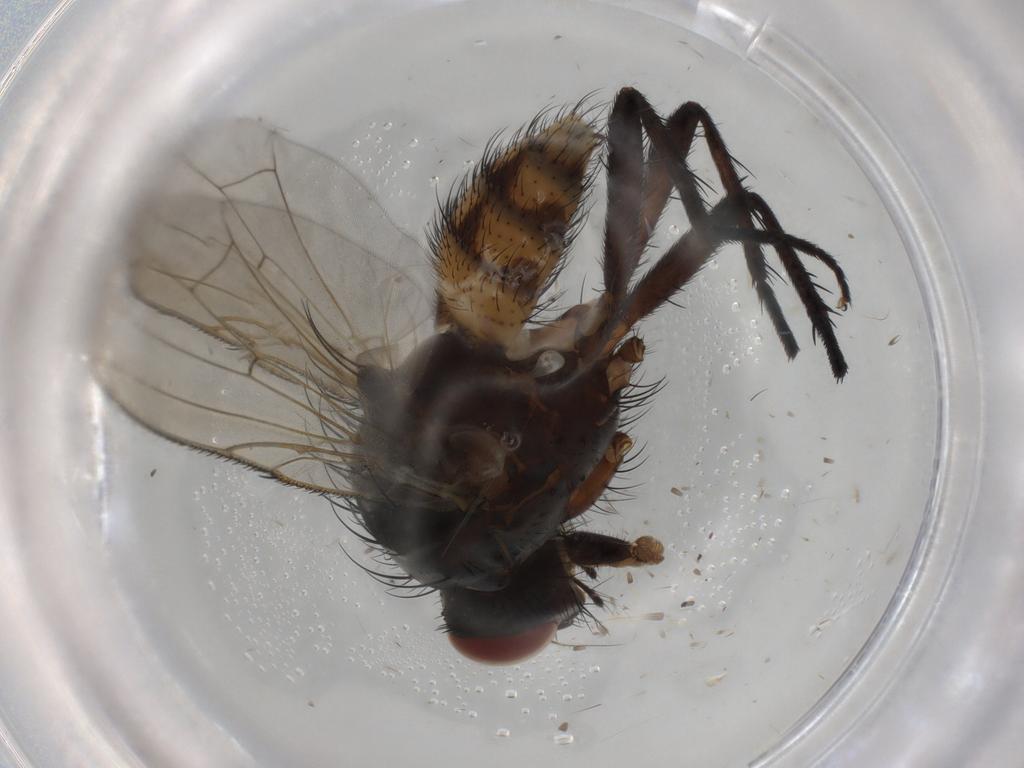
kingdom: Animalia
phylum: Arthropoda
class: Insecta
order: Diptera
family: Anthomyiidae
